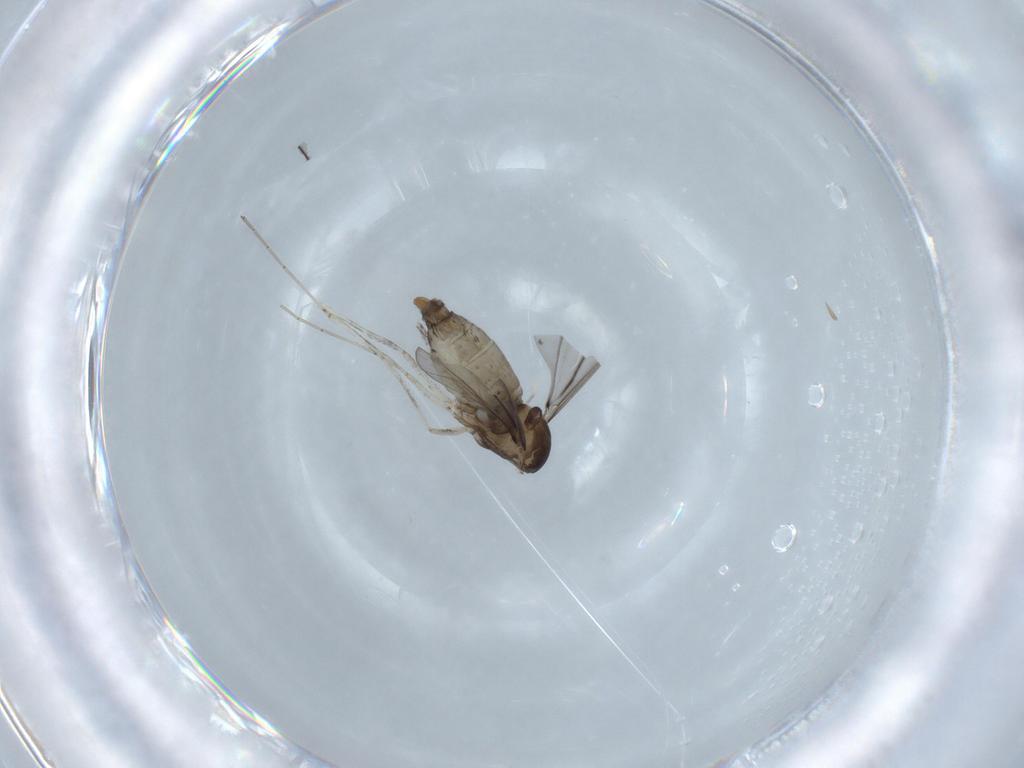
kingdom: Animalia
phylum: Arthropoda
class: Insecta
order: Diptera
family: Cecidomyiidae
